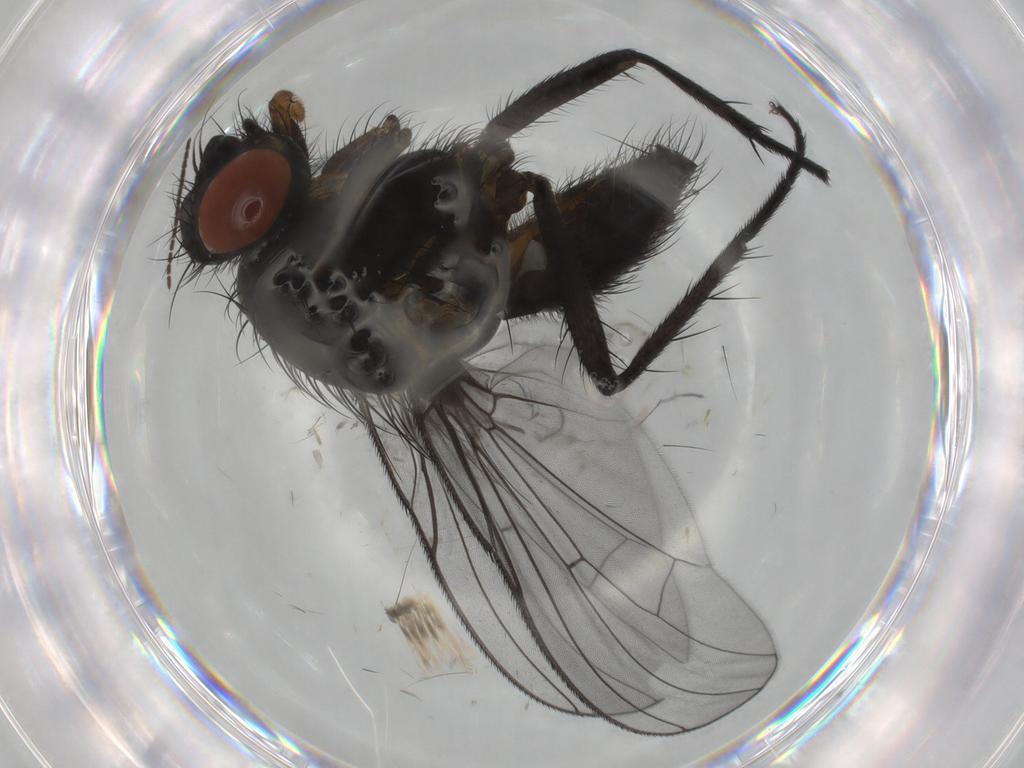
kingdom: Animalia
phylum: Arthropoda
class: Insecta
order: Diptera
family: Anthomyiidae
